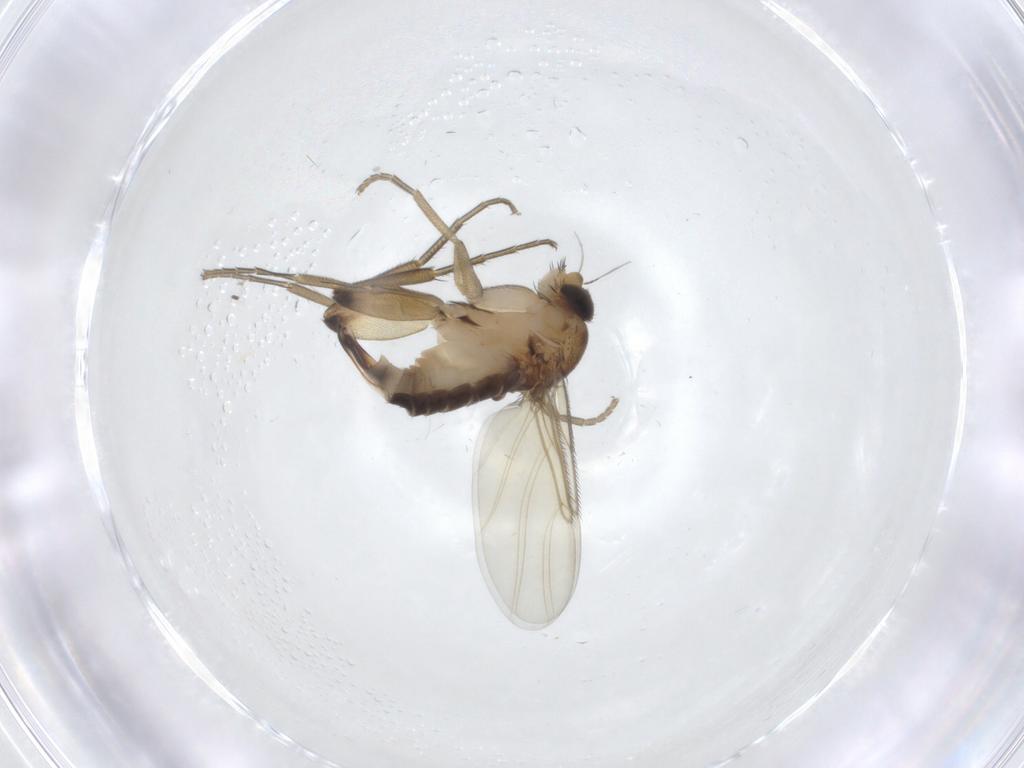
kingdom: Animalia
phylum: Arthropoda
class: Insecta
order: Diptera
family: Phoridae
